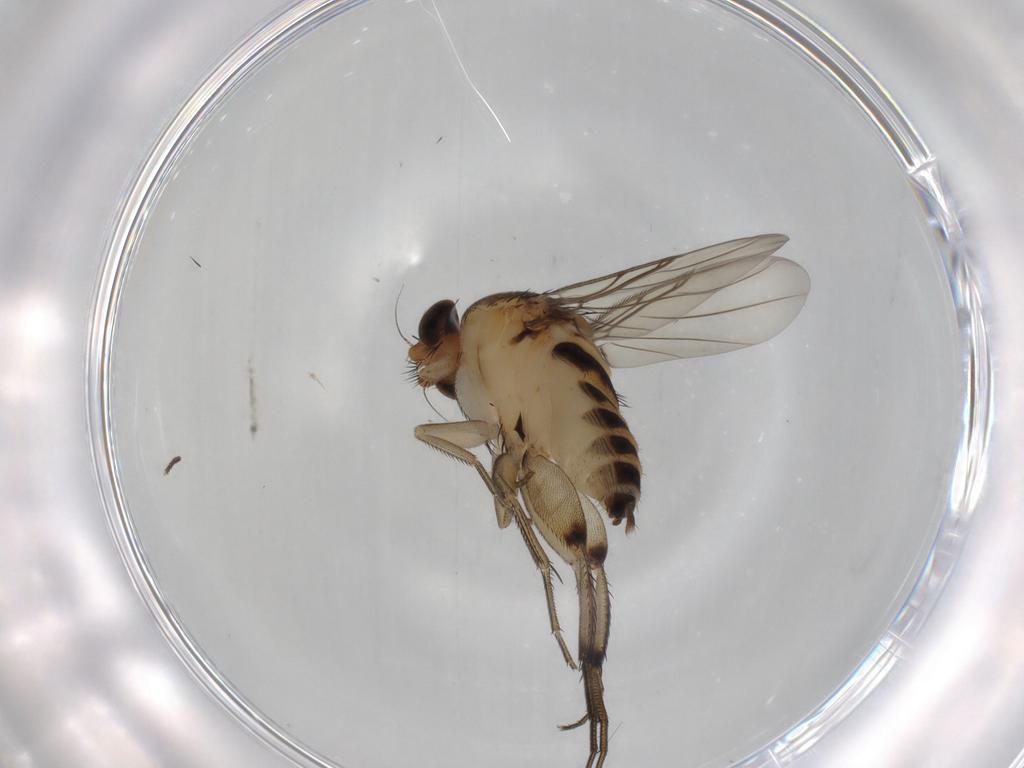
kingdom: Animalia
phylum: Arthropoda
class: Insecta
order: Diptera
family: Phoridae
